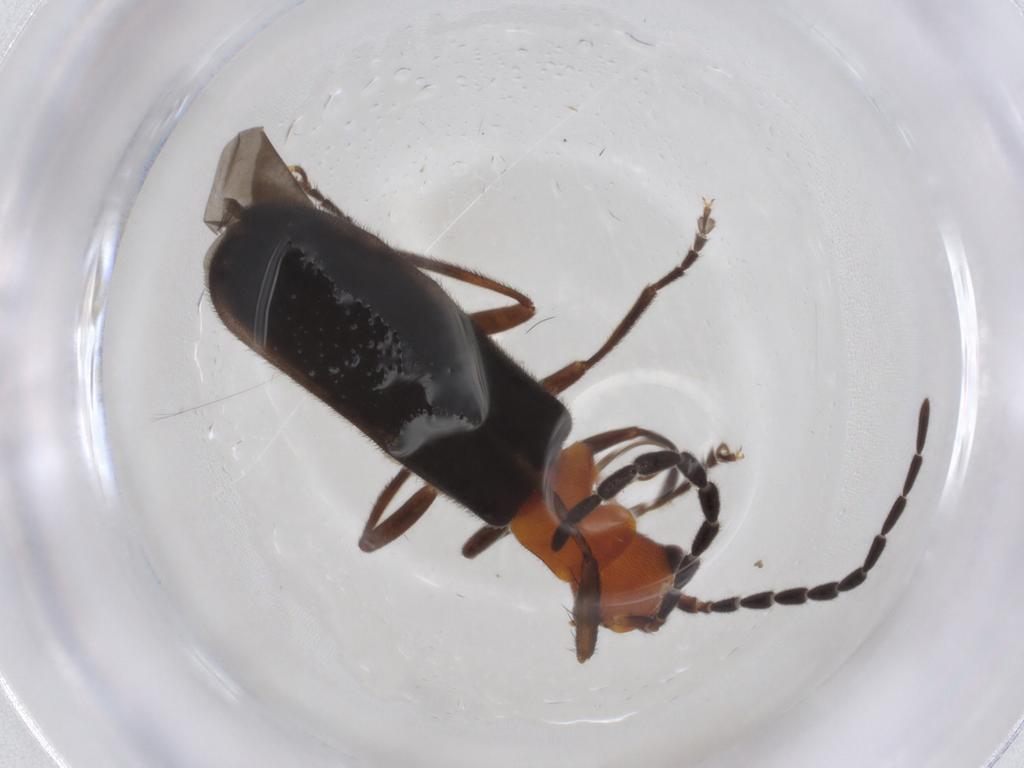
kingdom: Animalia
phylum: Arthropoda
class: Insecta
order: Coleoptera
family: Cantharidae
